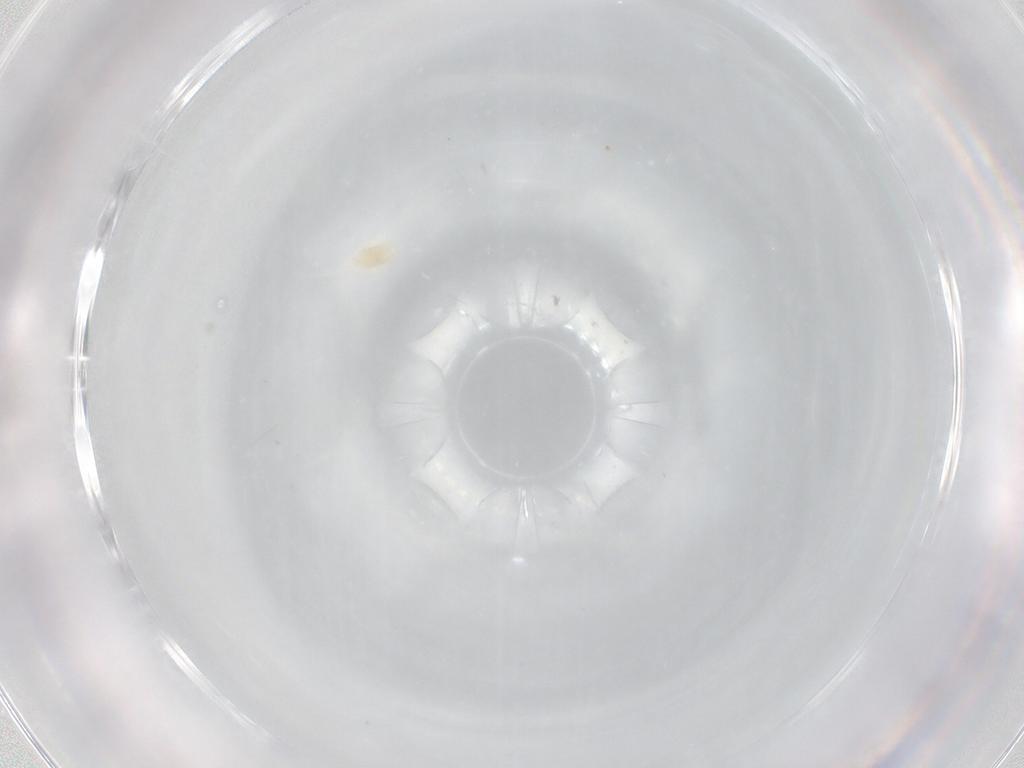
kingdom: Animalia
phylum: Arthropoda
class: Arachnida
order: Trombidiformes
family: Eupodidae
